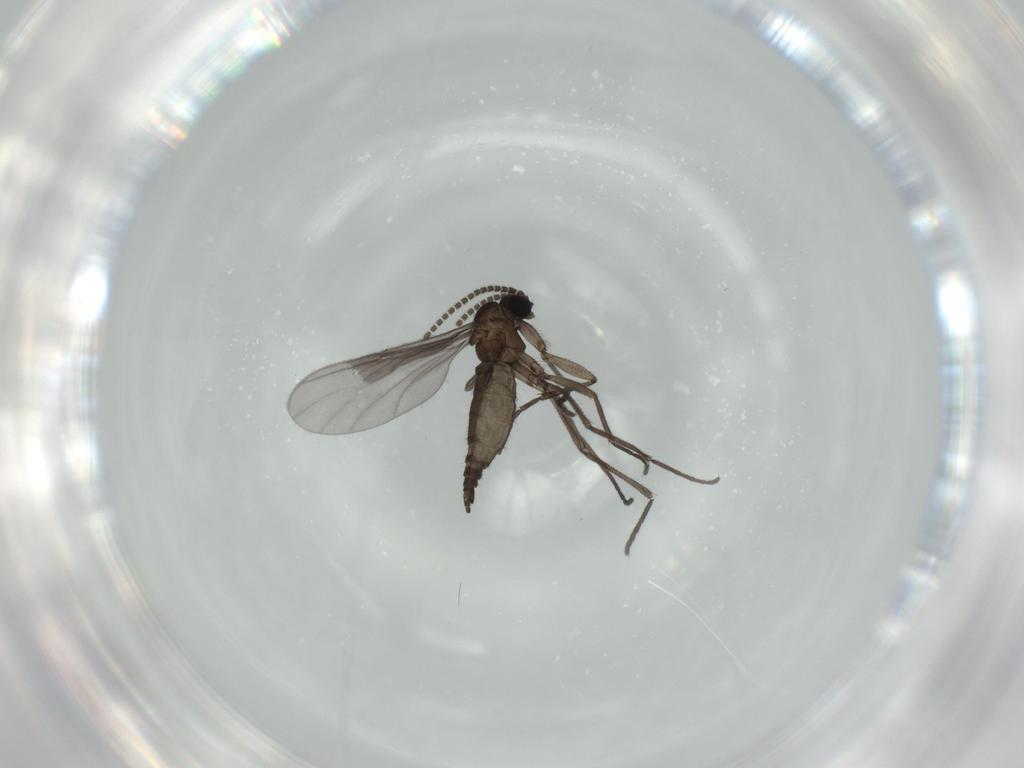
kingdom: Animalia
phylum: Arthropoda
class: Insecta
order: Diptera
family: Sciaridae
